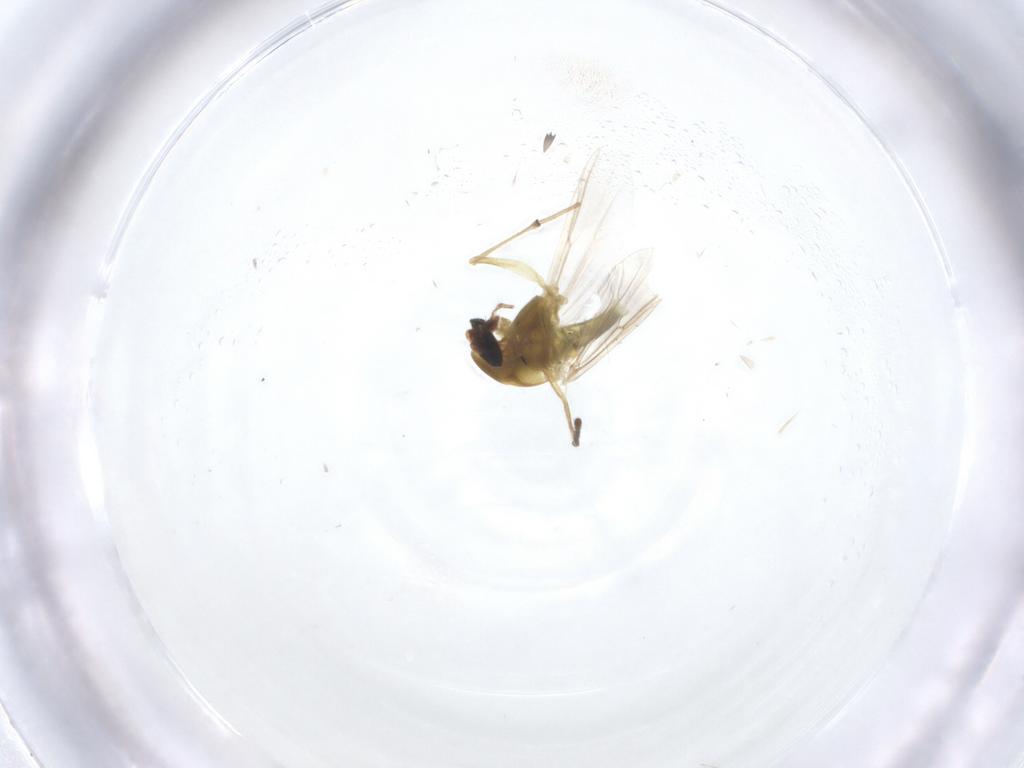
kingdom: Animalia
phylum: Arthropoda
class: Insecta
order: Diptera
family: Chironomidae
